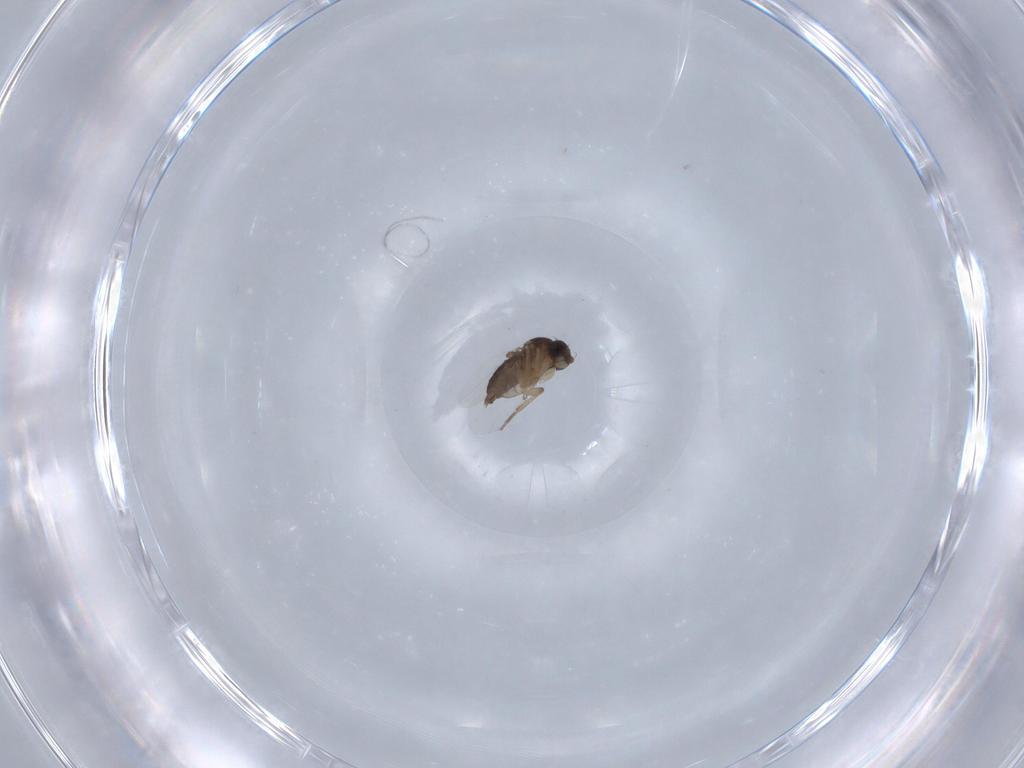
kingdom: Animalia
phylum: Arthropoda
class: Insecta
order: Diptera
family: Phoridae
